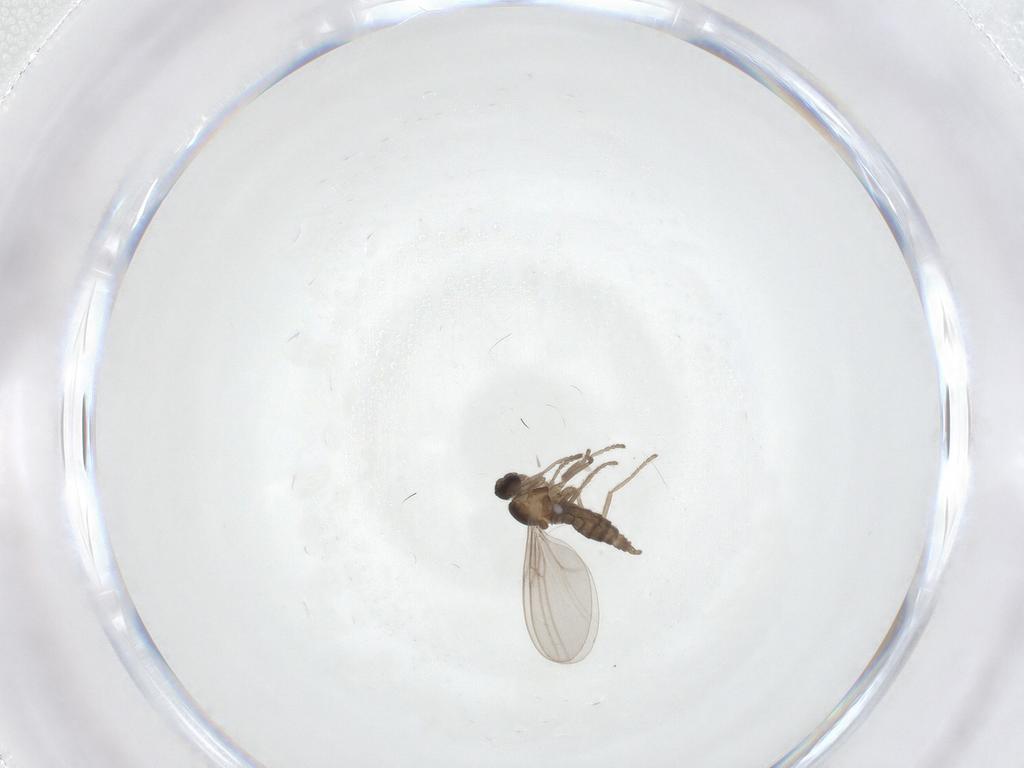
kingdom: Animalia
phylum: Arthropoda
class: Insecta
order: Diptera
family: Cecidomyiidae
